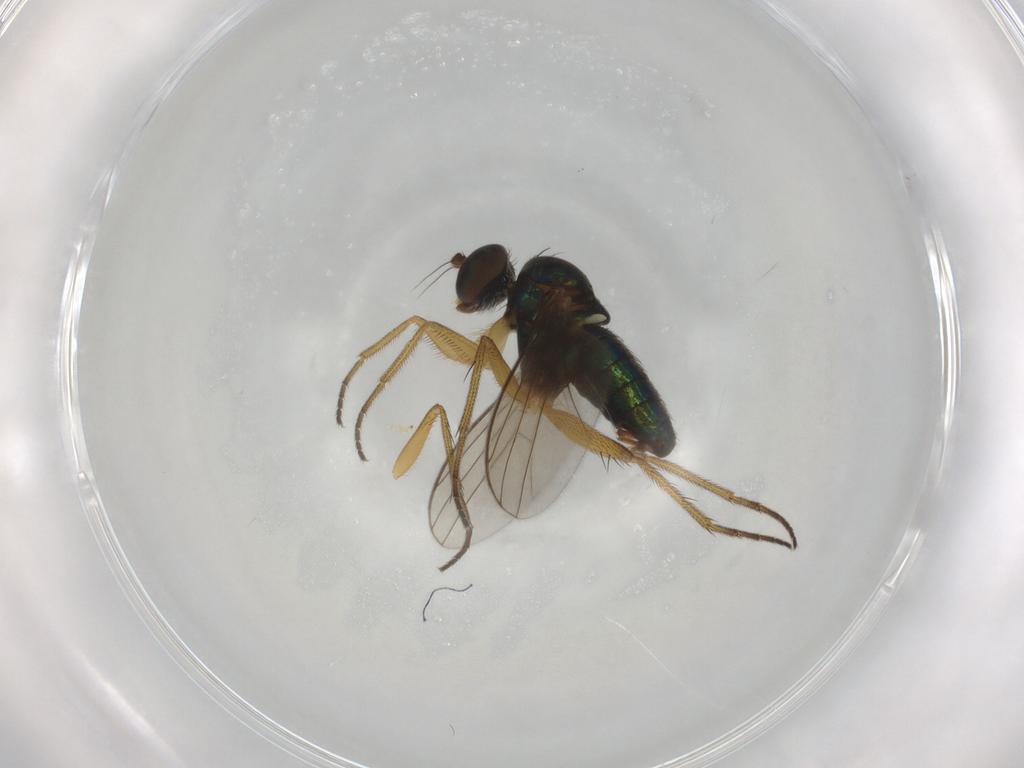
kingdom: Animalia
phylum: Arthropoda
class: Insecta
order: Diptera
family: Dolichopodidae
